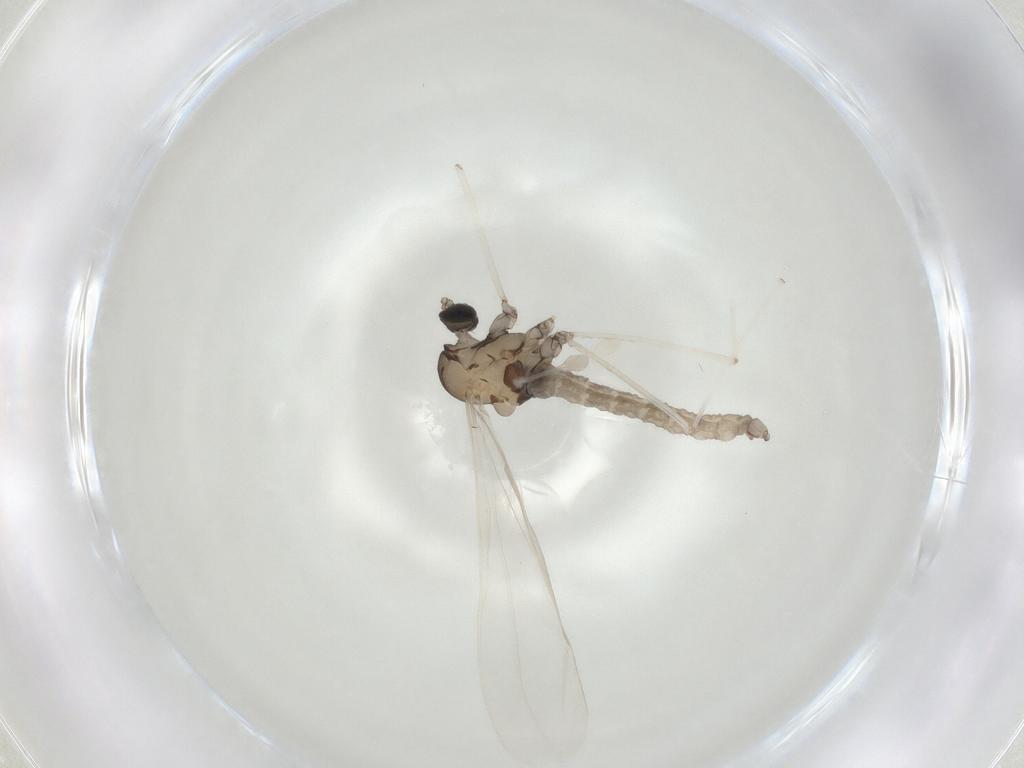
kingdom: Animalia
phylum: Arthropoda
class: Insecta
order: Diptera
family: Cecidomyiidae
